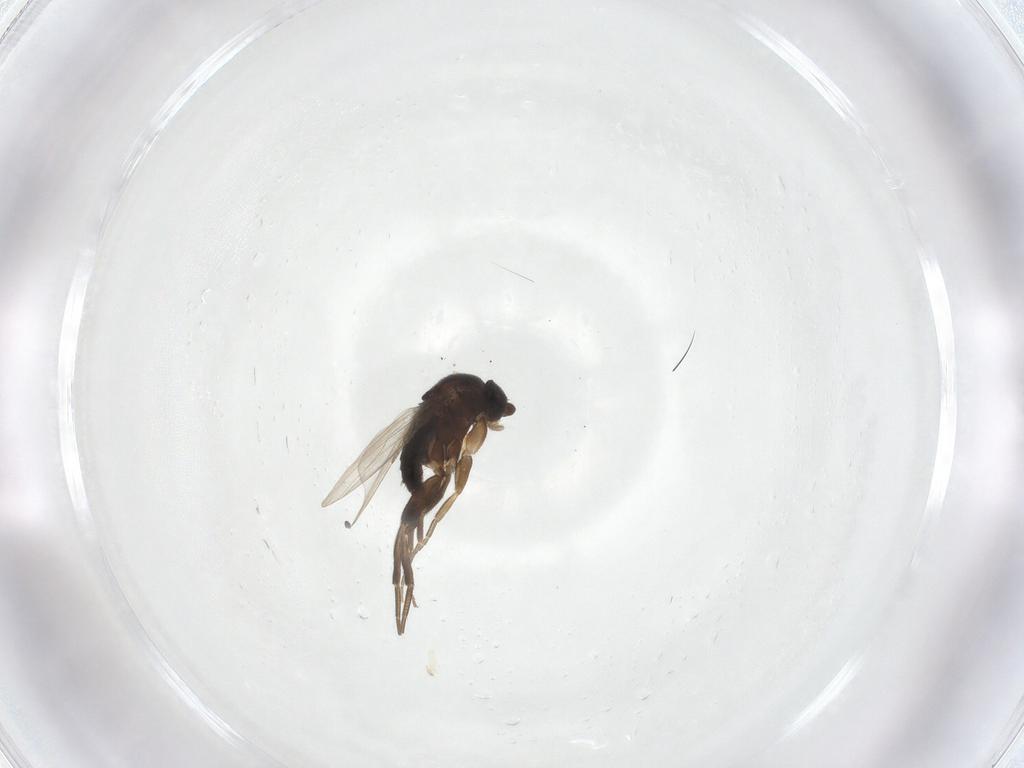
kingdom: Animalia
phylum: Arthropoda
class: Insecta
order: Diptera
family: Phoridae
